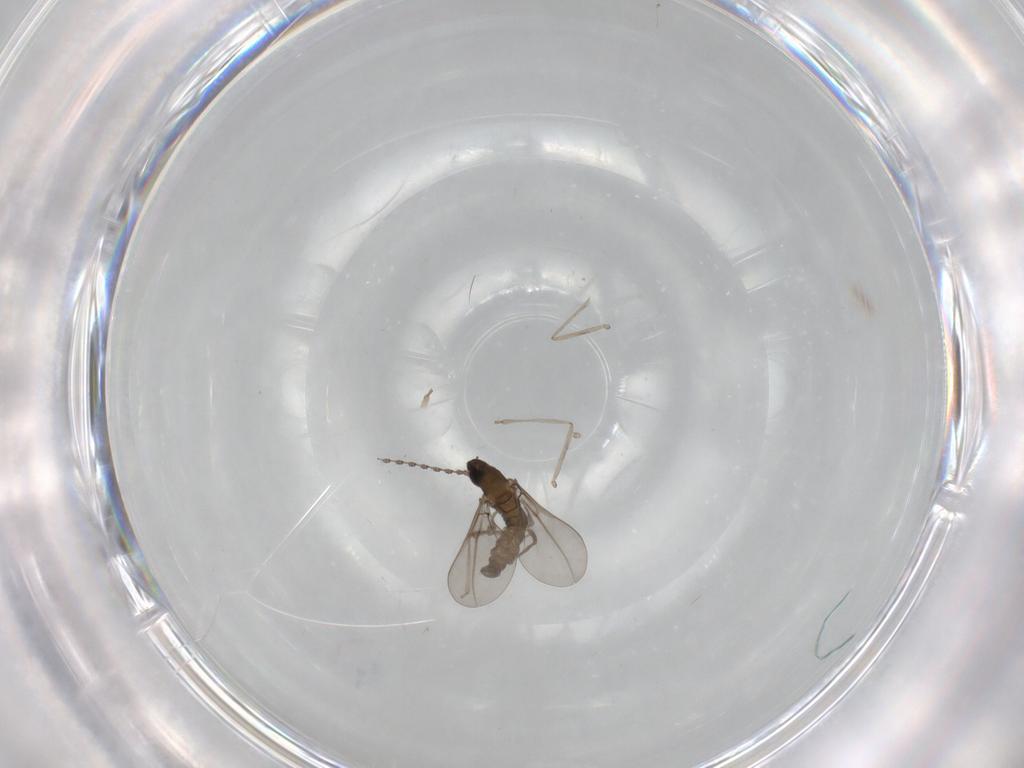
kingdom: Animalia
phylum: Arthropoda
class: Insecta
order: Diptera
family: Cecidomyiidae
